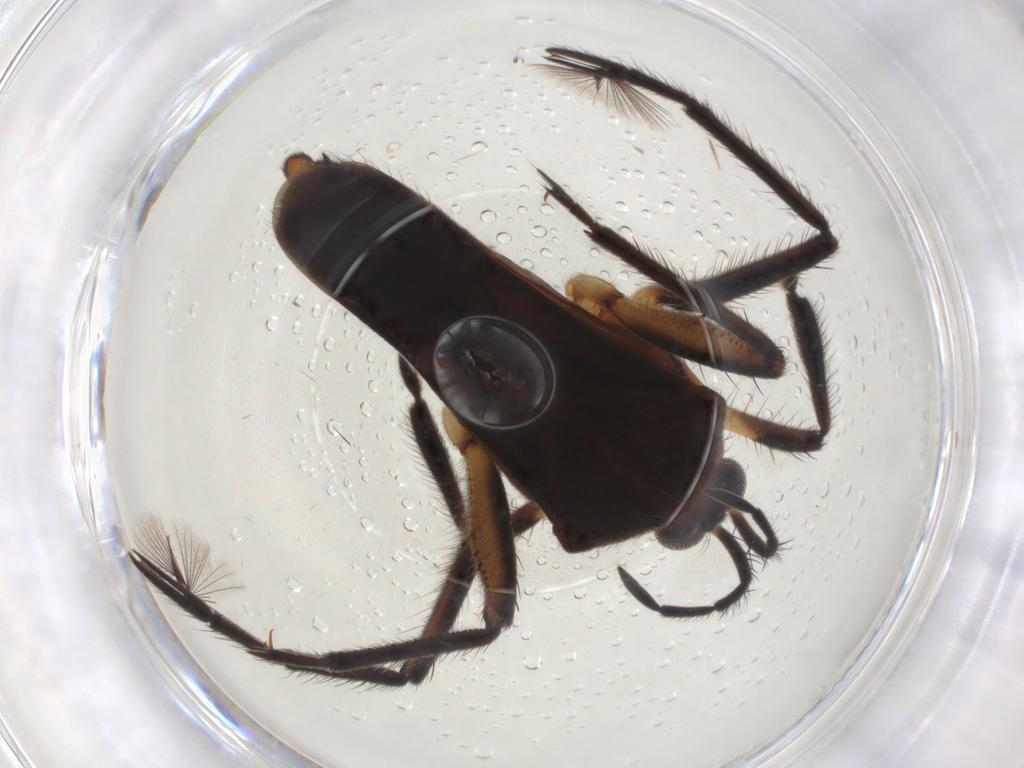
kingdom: Animalia
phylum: Arthropoda
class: Insecta
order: Hemiptera
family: Veliidae
